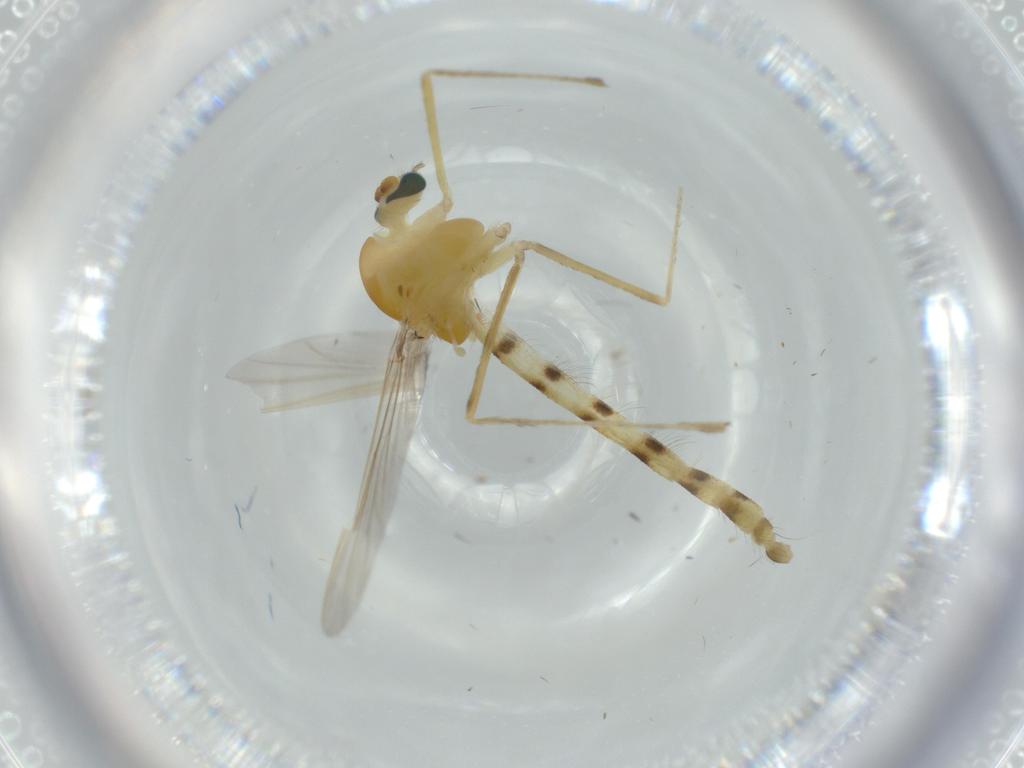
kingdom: Animalia
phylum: Arthropoda
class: Insecta
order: Diptera
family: Chironomidae
